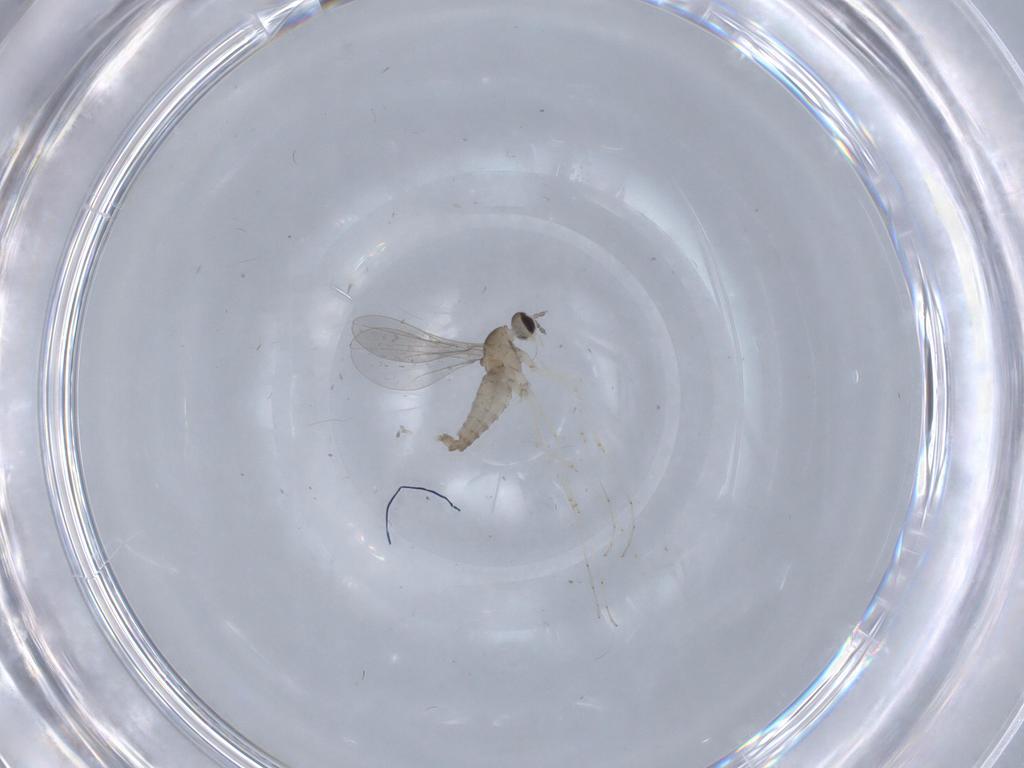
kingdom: Animalia
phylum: Arthropoda
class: Insecta
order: Diptera
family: Cecidomyiidae
